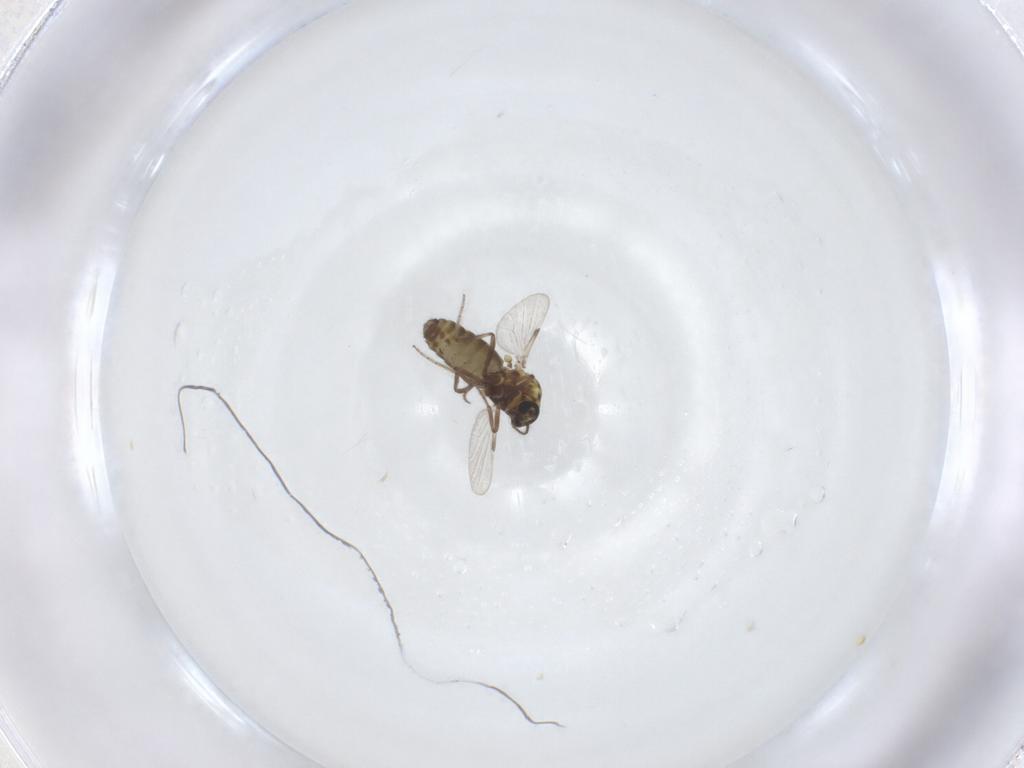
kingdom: Animalia
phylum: Arthropoda
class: Insecta
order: Diptera
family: Ceratopogonidae
